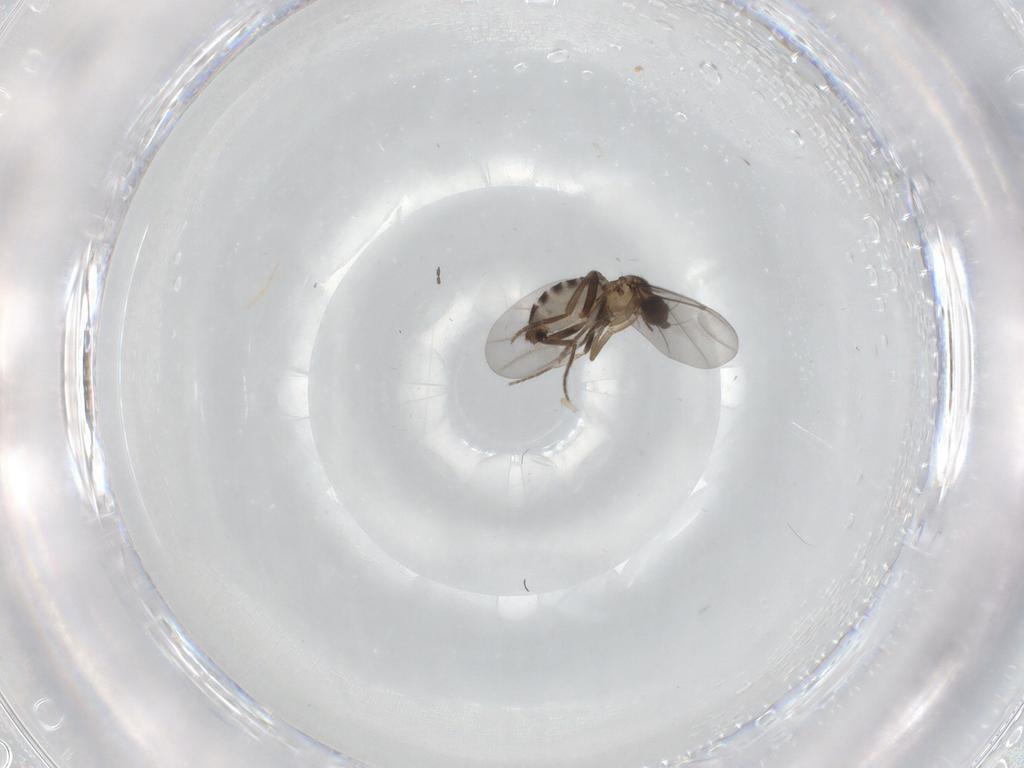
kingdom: Animalia
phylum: Arthropoda
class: Insecta
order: Diptera
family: Phoridae
